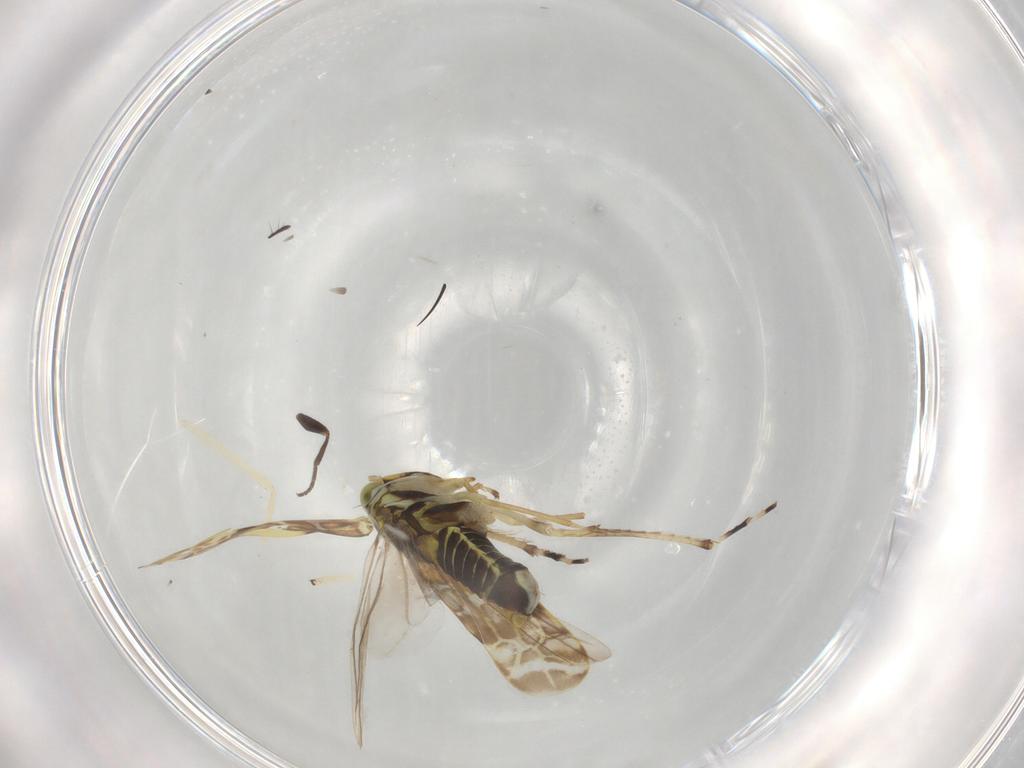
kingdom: Animalia
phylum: Arthropoda
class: Insecta
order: Hemiptera
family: Cicadellidae
